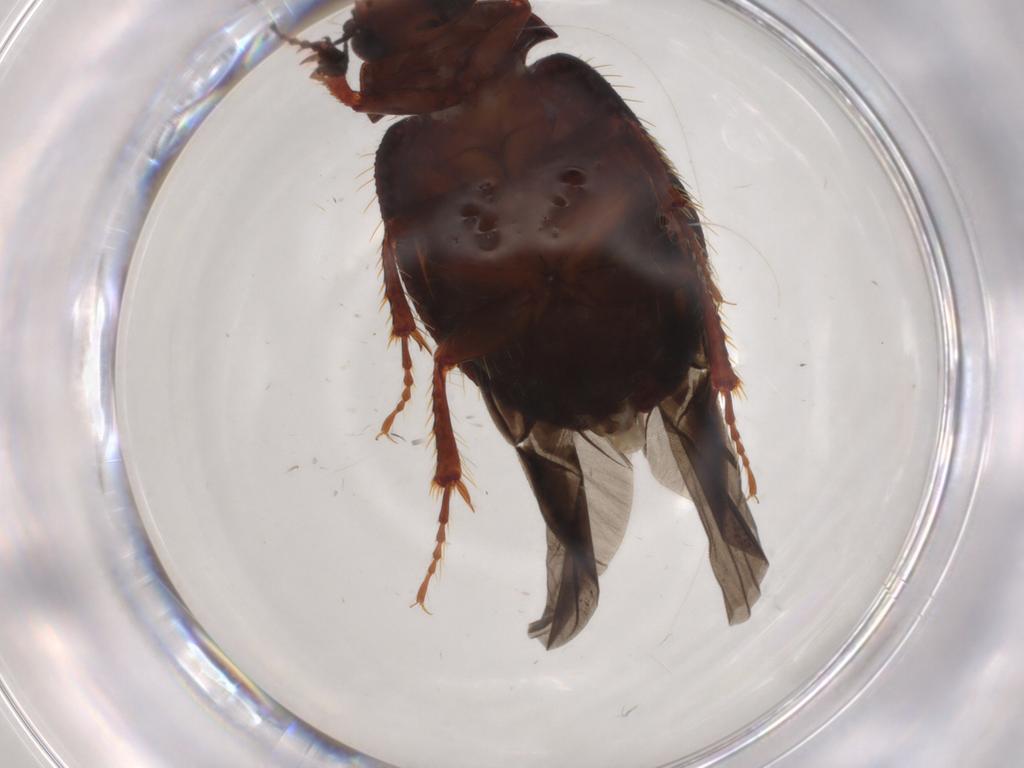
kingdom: Animalia
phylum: Arthropoda
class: Insecta
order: Coleoptera
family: Hybosoridae
